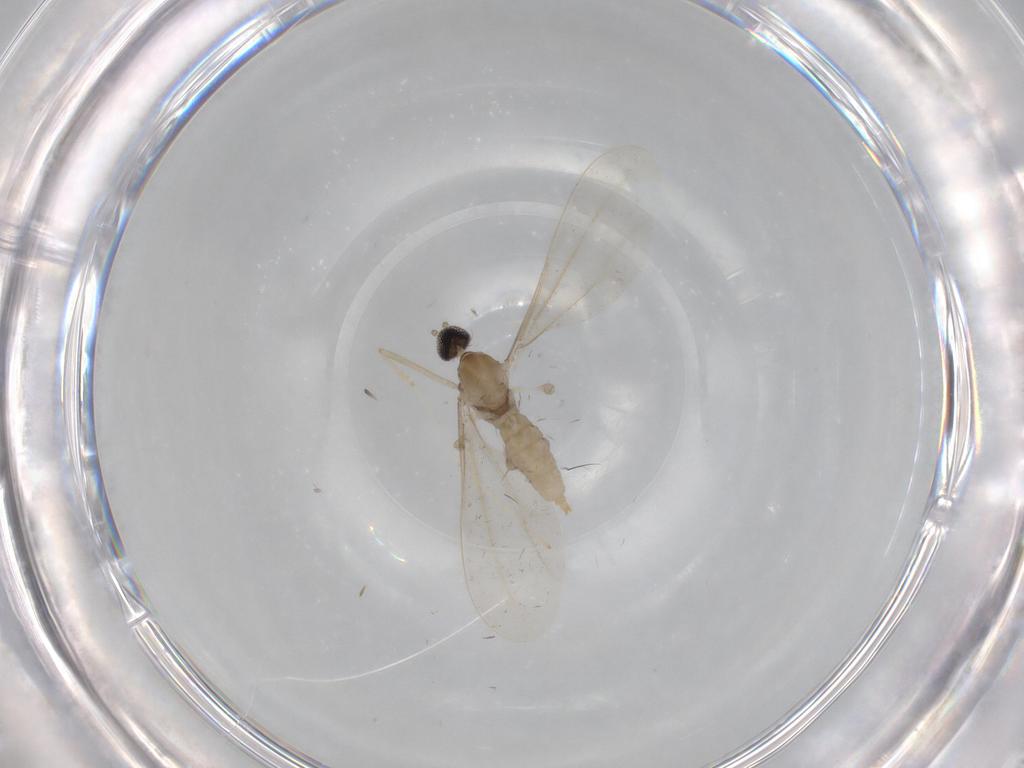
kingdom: Animalia
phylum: Arthropoda
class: Insecta
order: Diptera
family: Cecidomyiidae
